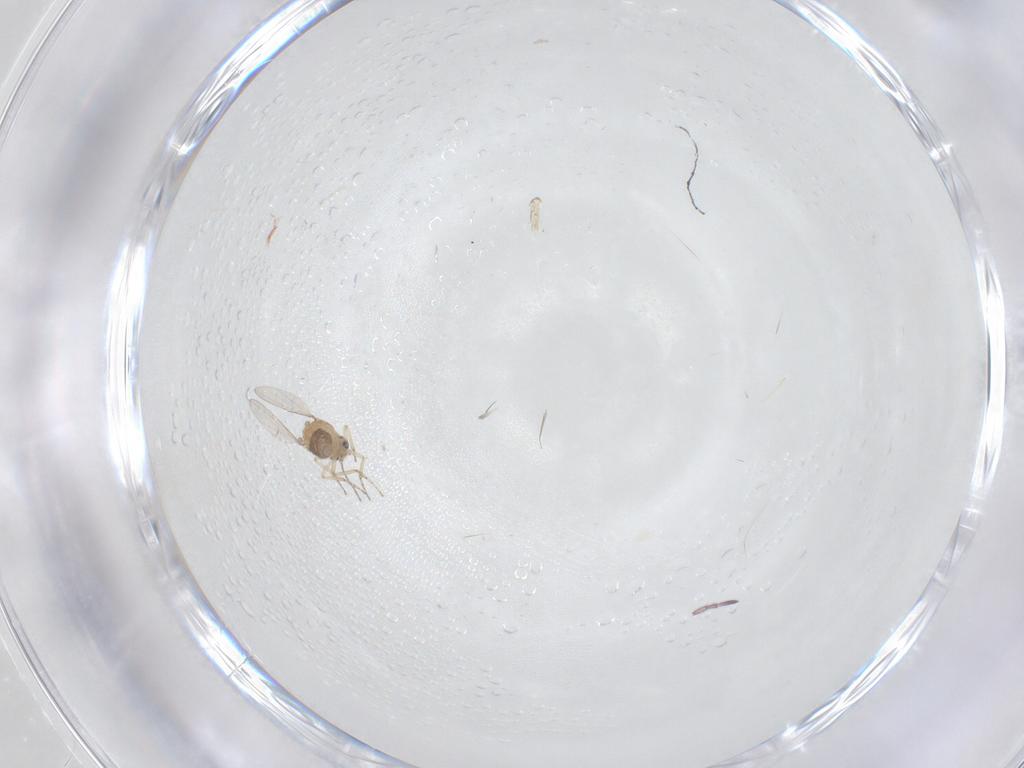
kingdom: Animalia
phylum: Arthropoda
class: Insecta
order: Diptera
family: Ceratopogonidae
